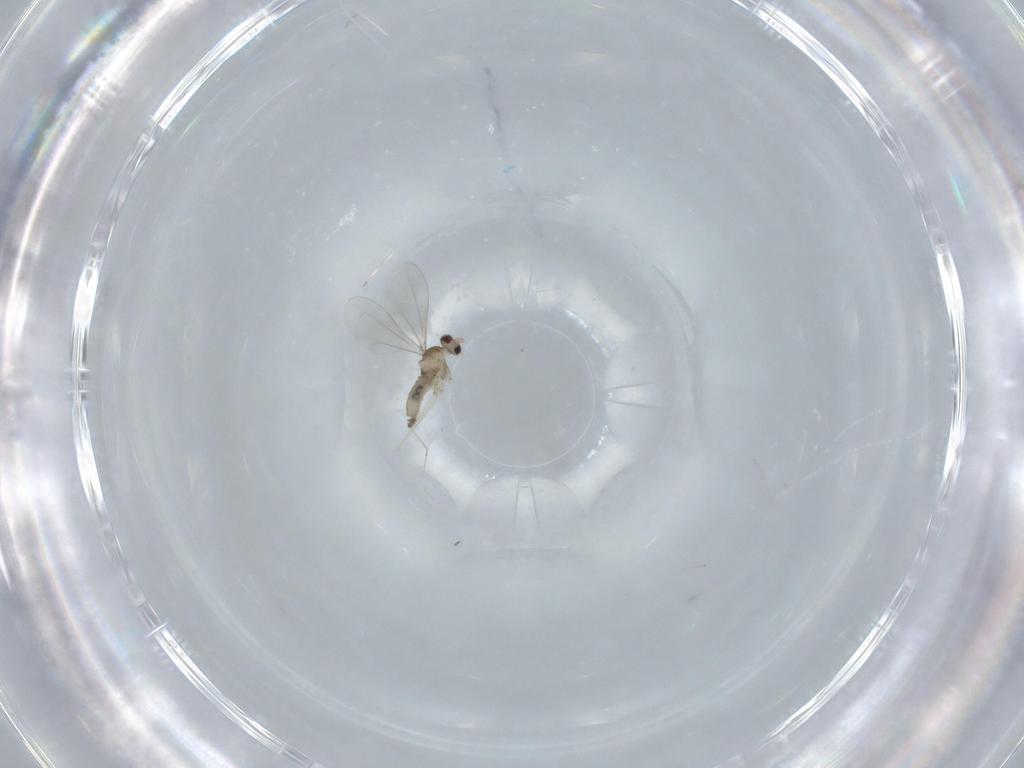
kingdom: Animalia
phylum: Arthropoda
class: Insecta
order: Diptera
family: Cecidomyiidae
